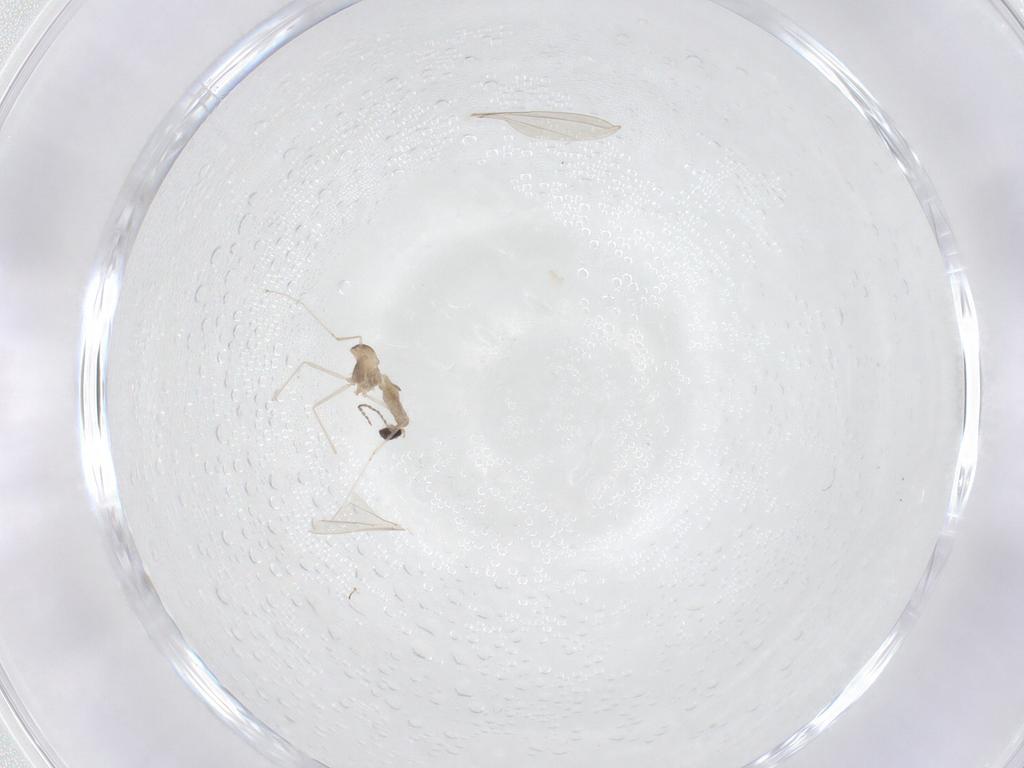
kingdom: Animalia
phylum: Arthropoda
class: Insecta
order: Diptera
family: Cecidomyiidae
